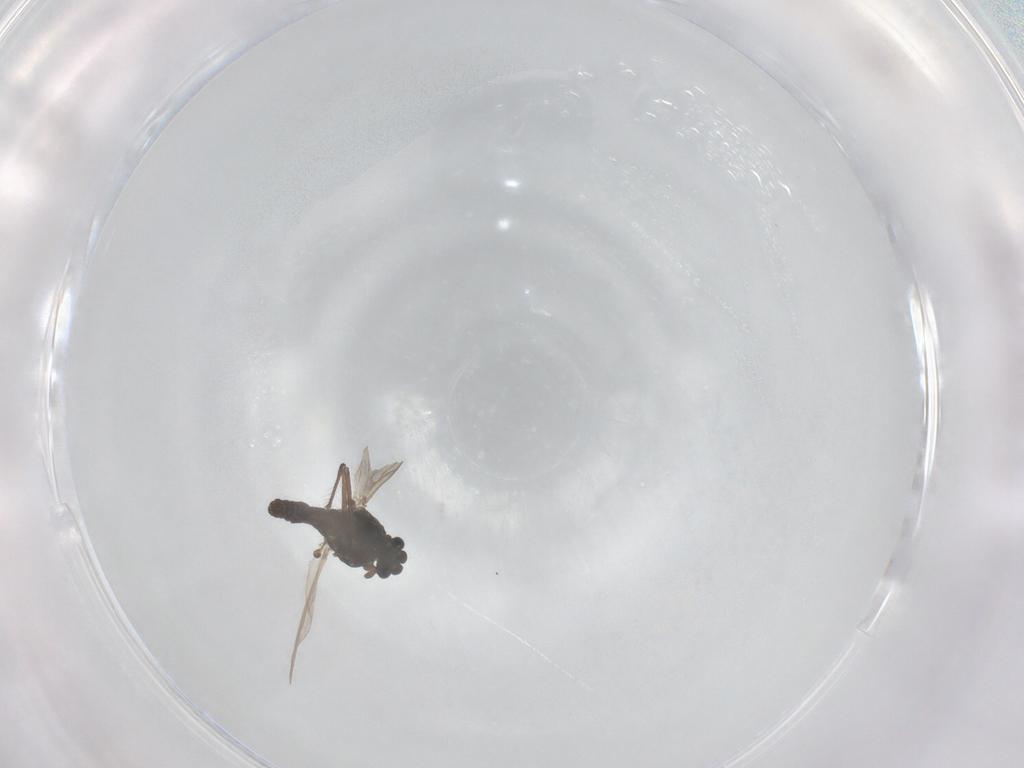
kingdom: Animalia
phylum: Arthropoda
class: Insecta
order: Diptera
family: Chironomidae
